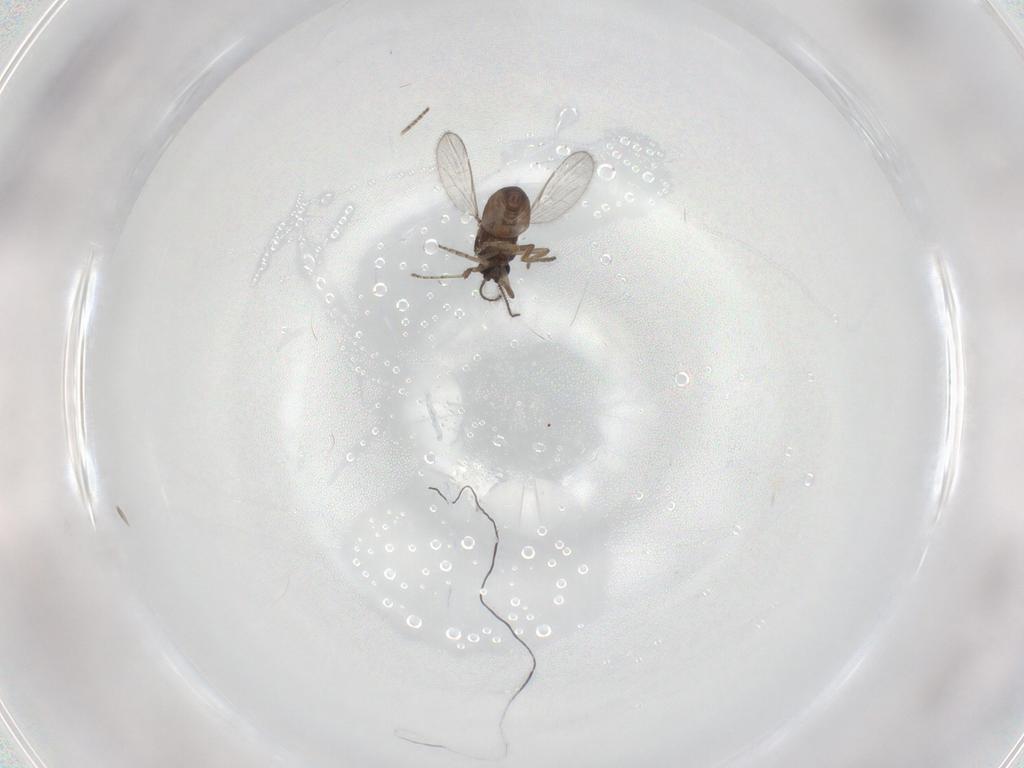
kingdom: Animalia
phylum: Arthropoda
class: Insecta
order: Diptera
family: Ceratopogonidae
